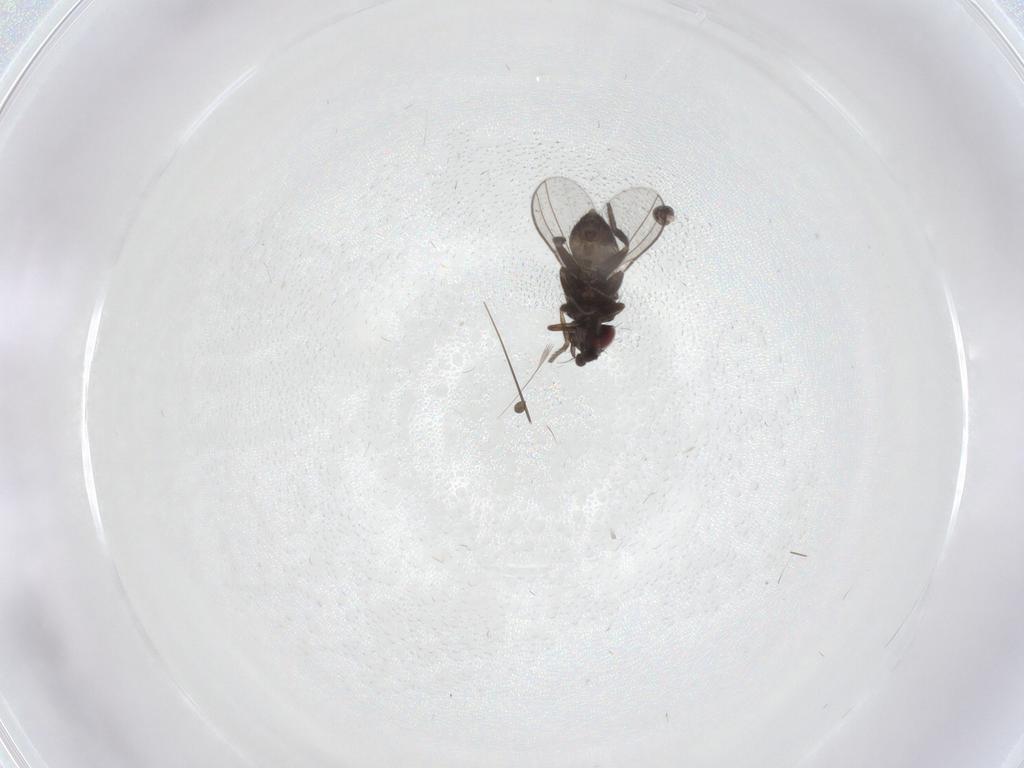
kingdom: Animalia
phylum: Arthropoda
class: Insecta
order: Diptera
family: Milichiidae
